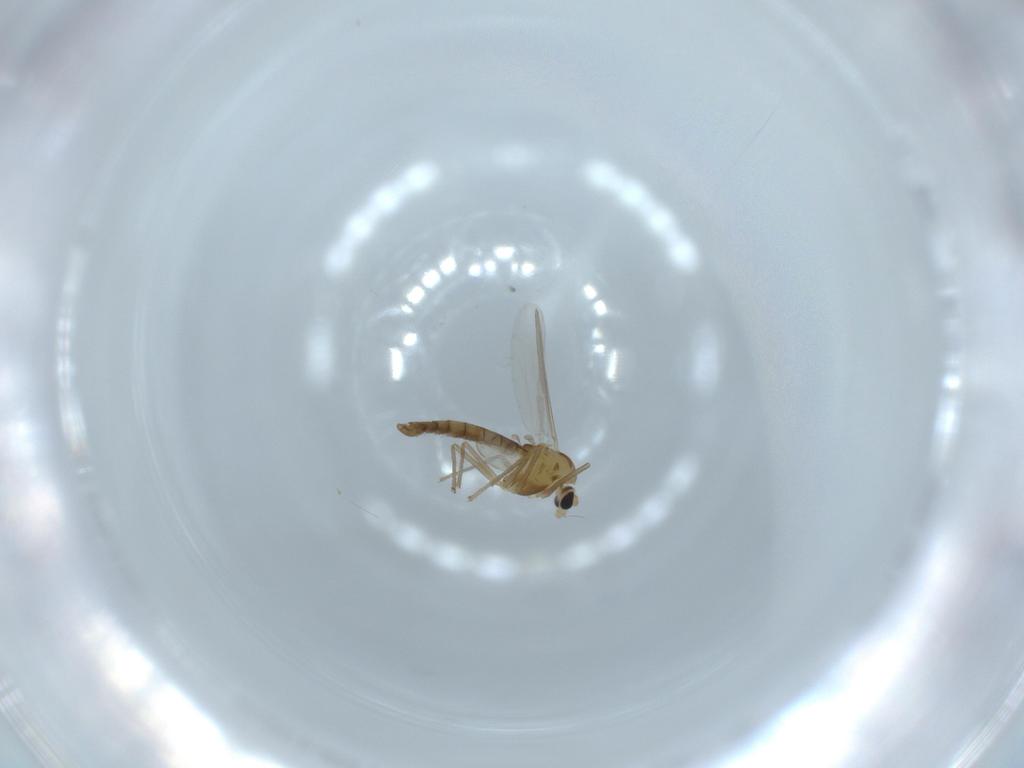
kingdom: Animalia
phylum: Arthropoda
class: Insecta
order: Diptera
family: Chironomidae
